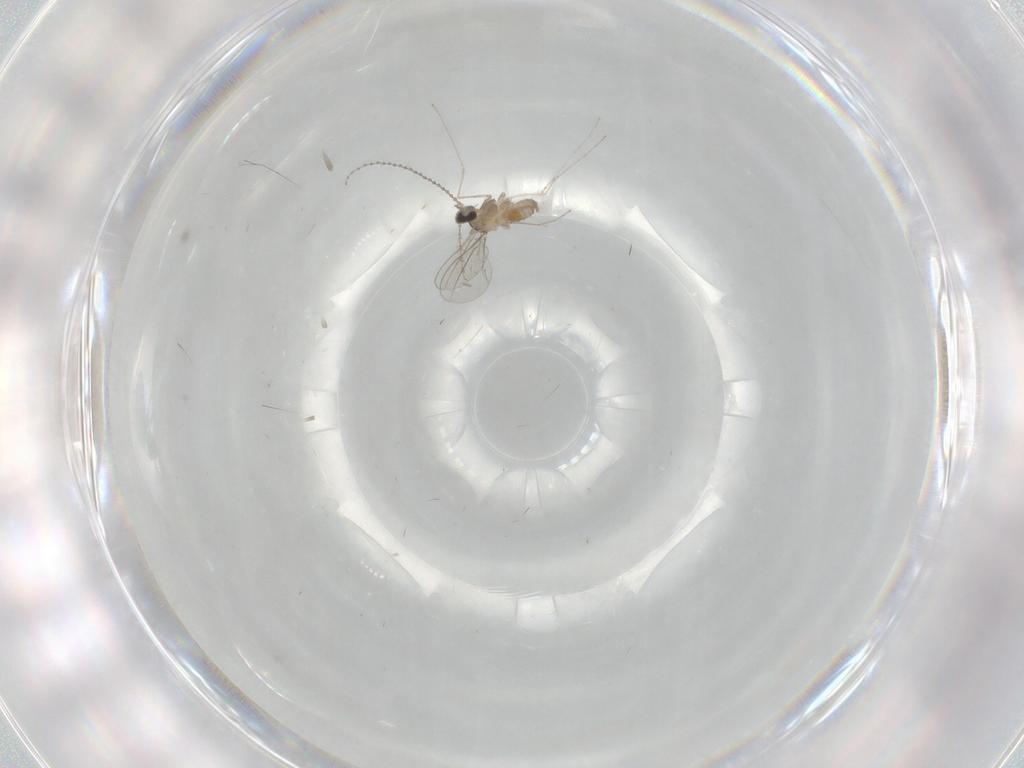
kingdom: Animalia
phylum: Arthropoda
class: Insecta
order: Diptera
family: Cecidomyiidae
